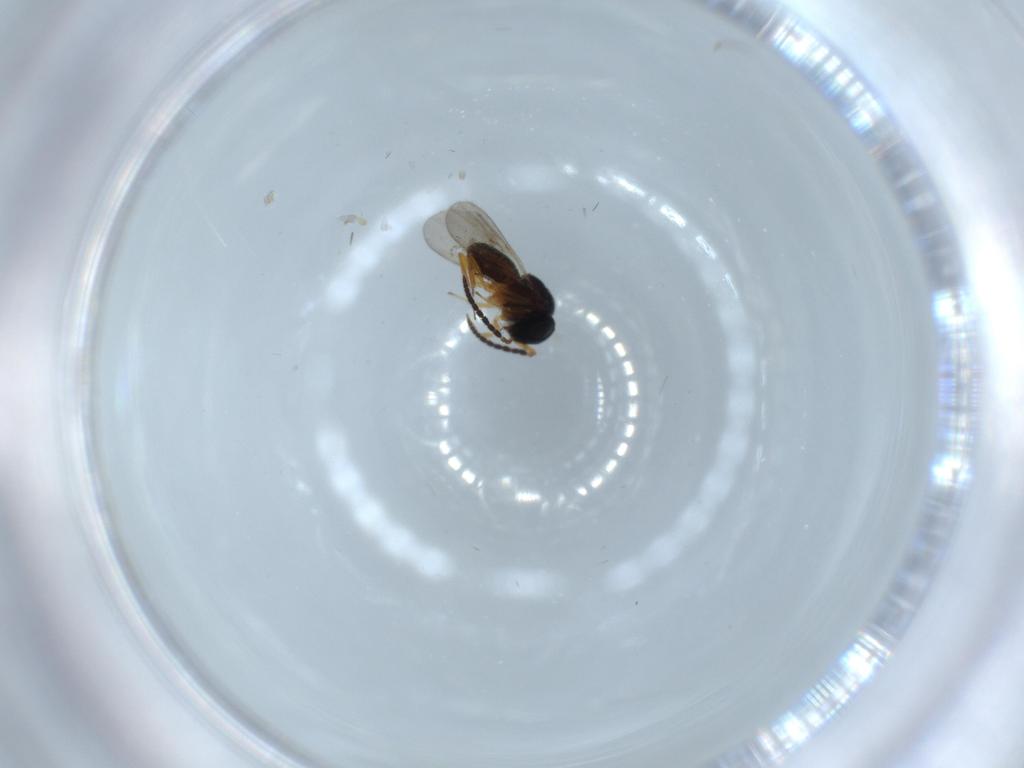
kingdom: Animalia
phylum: Arthropoda
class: Insecta
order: Hymenoptera
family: Scelionidae
